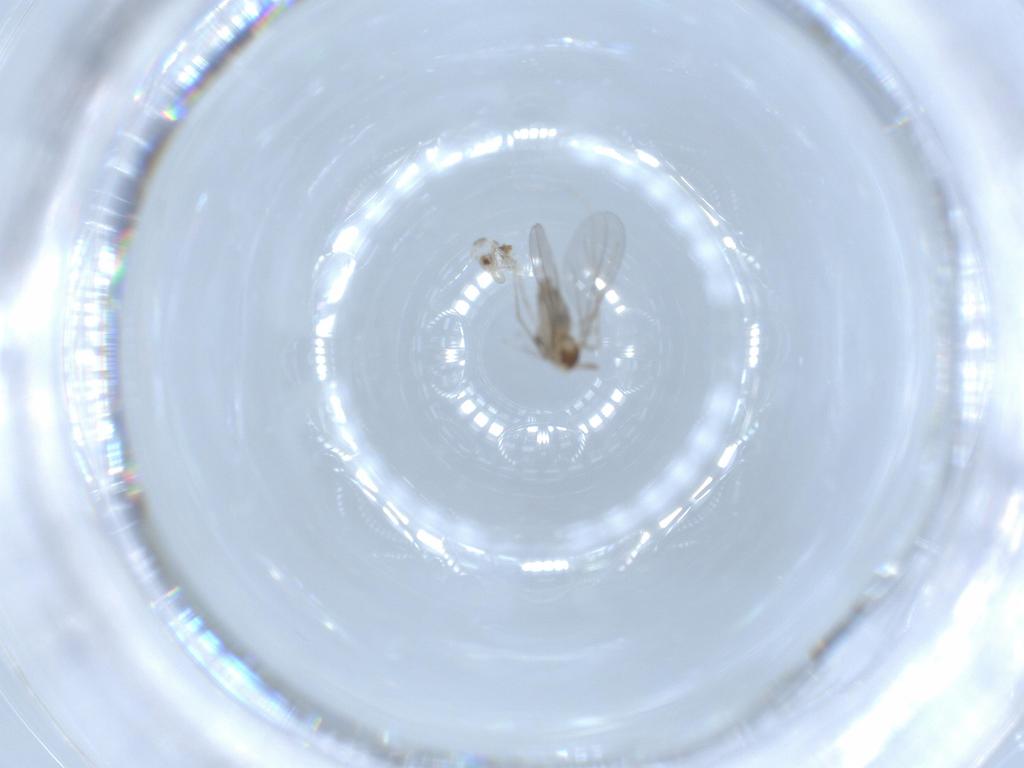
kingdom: Animalia
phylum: Arthropoda
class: Insecta
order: Diptera
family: Cecidomyiidae
